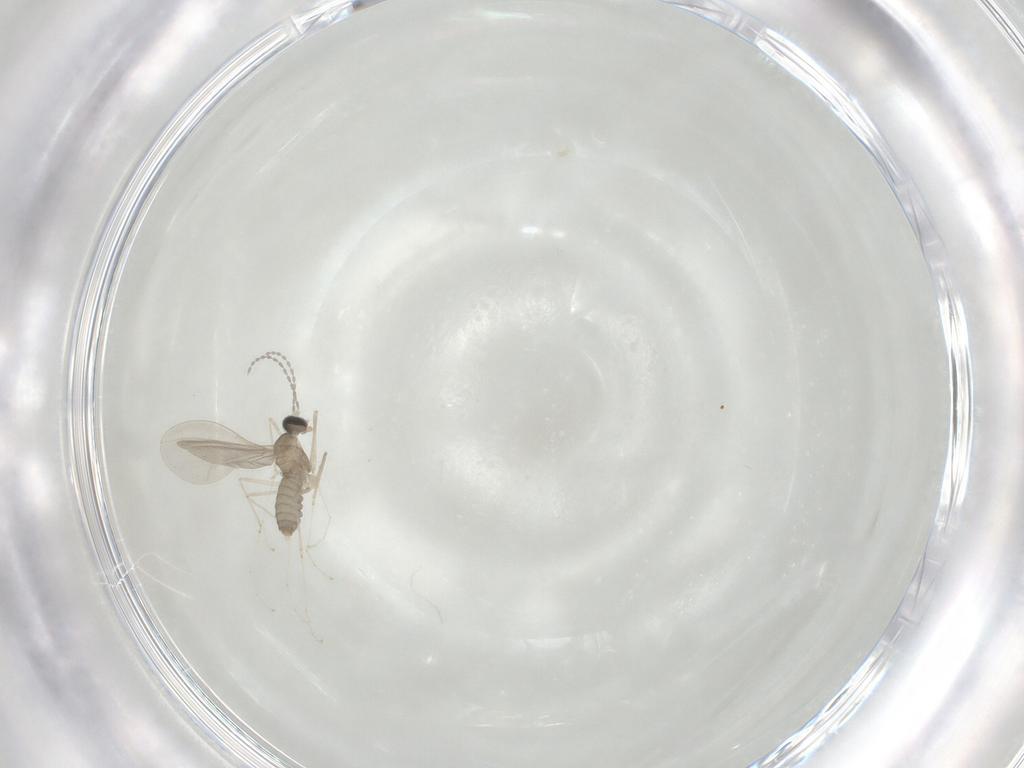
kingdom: Animalia
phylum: Arthropoda
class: Insecta
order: Diptera
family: Cecidomyiidae
